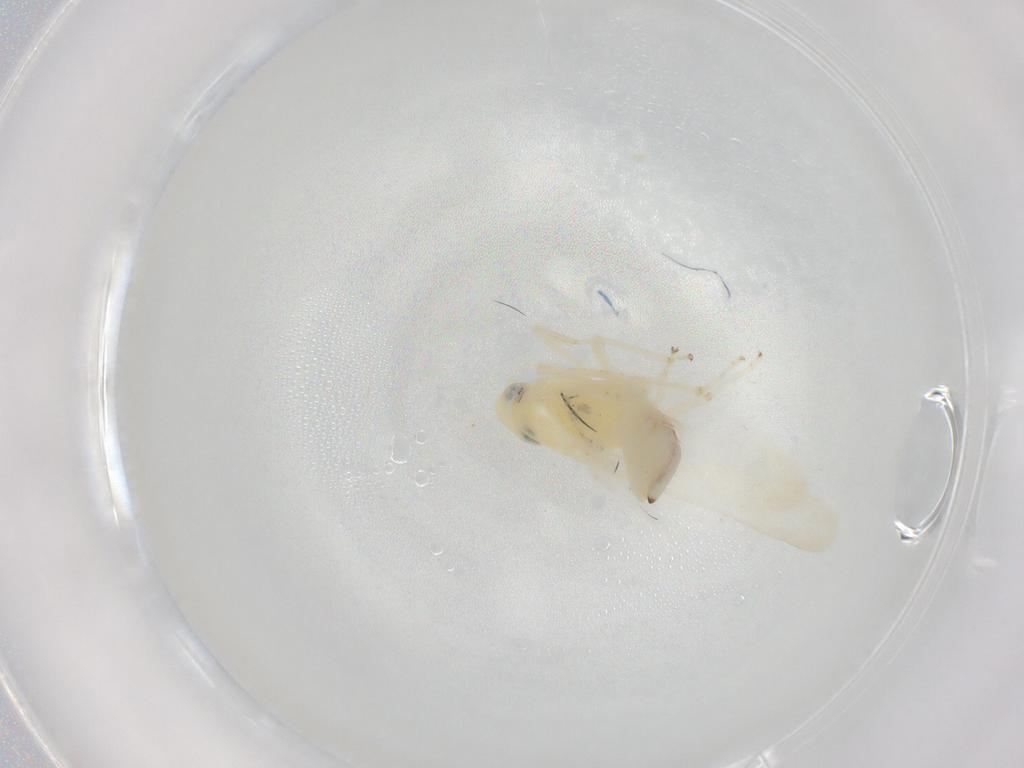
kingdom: Animalia
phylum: Arthropoda
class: Insecta
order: Hemiptera
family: Cicadellidae
